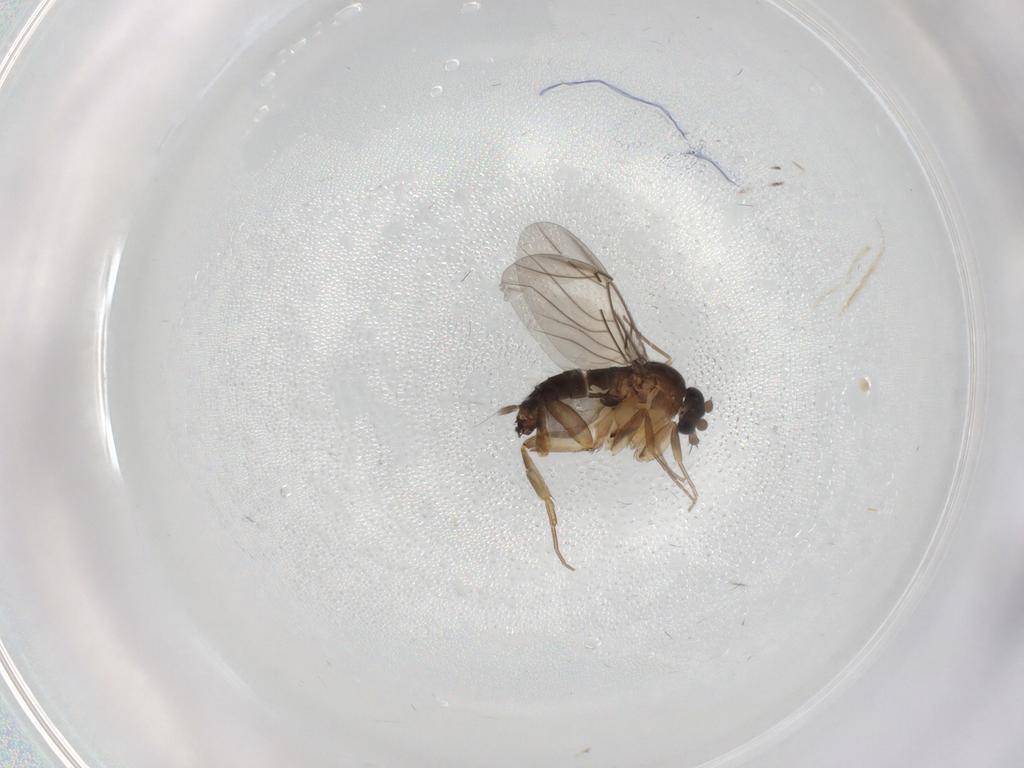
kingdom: Animalia
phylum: Arthropoda
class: Insecta
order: Diptera
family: Phoridae
